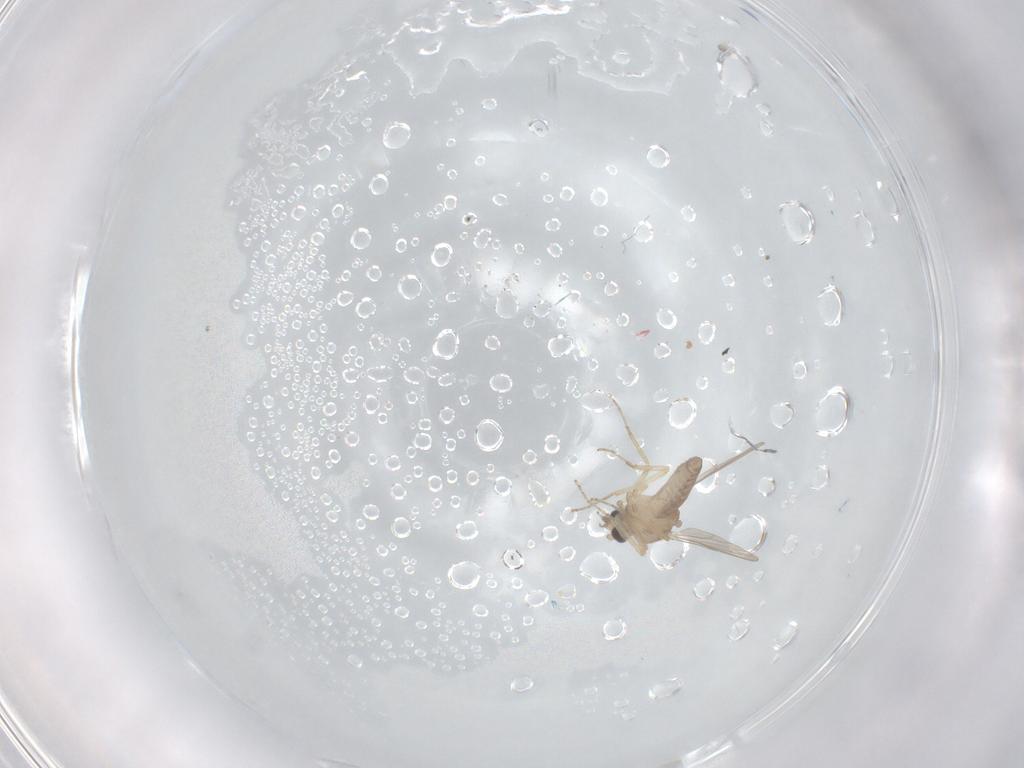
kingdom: Animalia
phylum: Arthropoda
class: Insecta
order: Diptera
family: Ceratopogonidae
